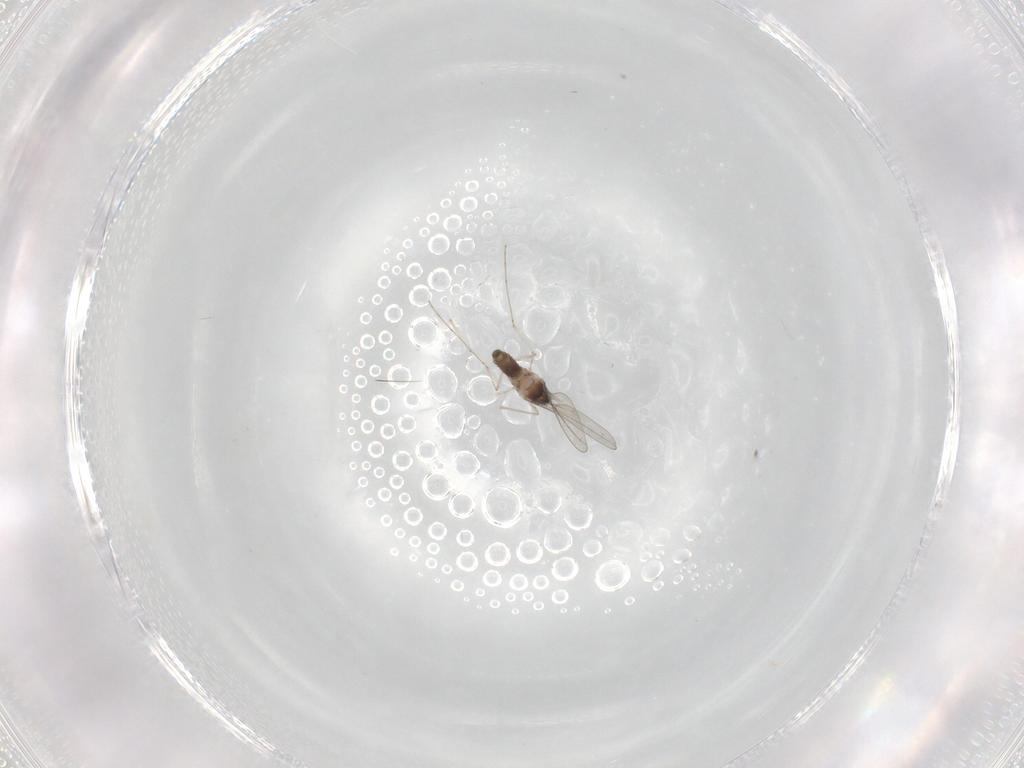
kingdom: Animalia
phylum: Arthropoda
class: Insecta
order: Diptera
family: Cecidomyiidae
